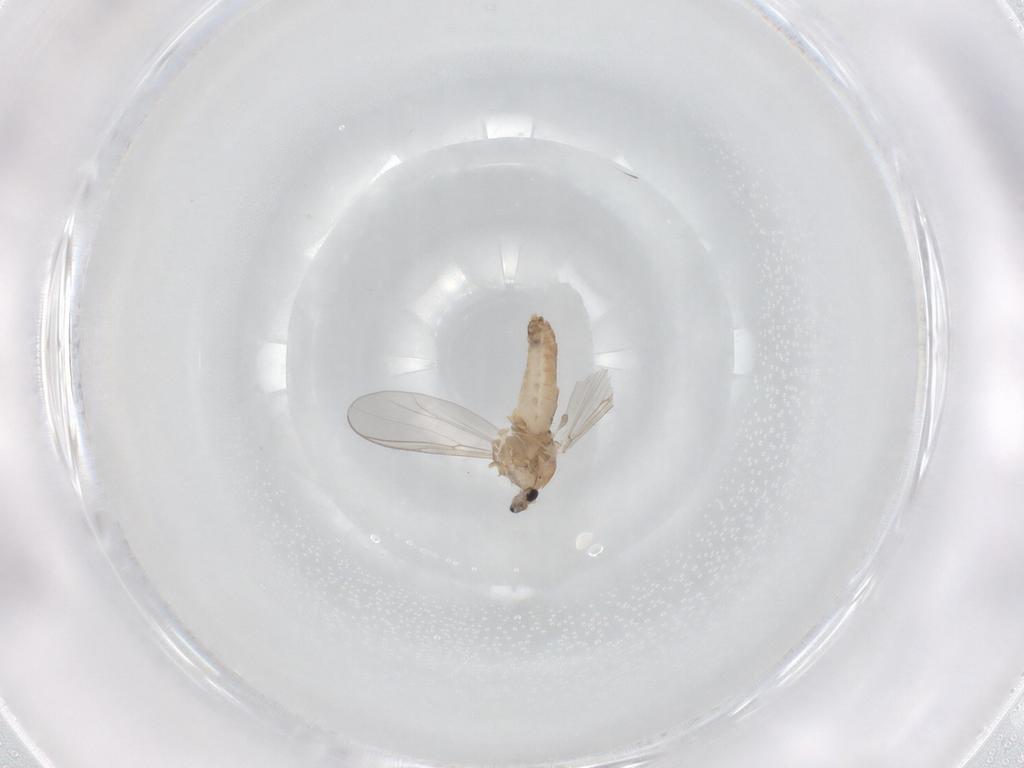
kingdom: Animalia
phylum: Arthropoda
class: Insecta
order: Diptera
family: Chironomidae
